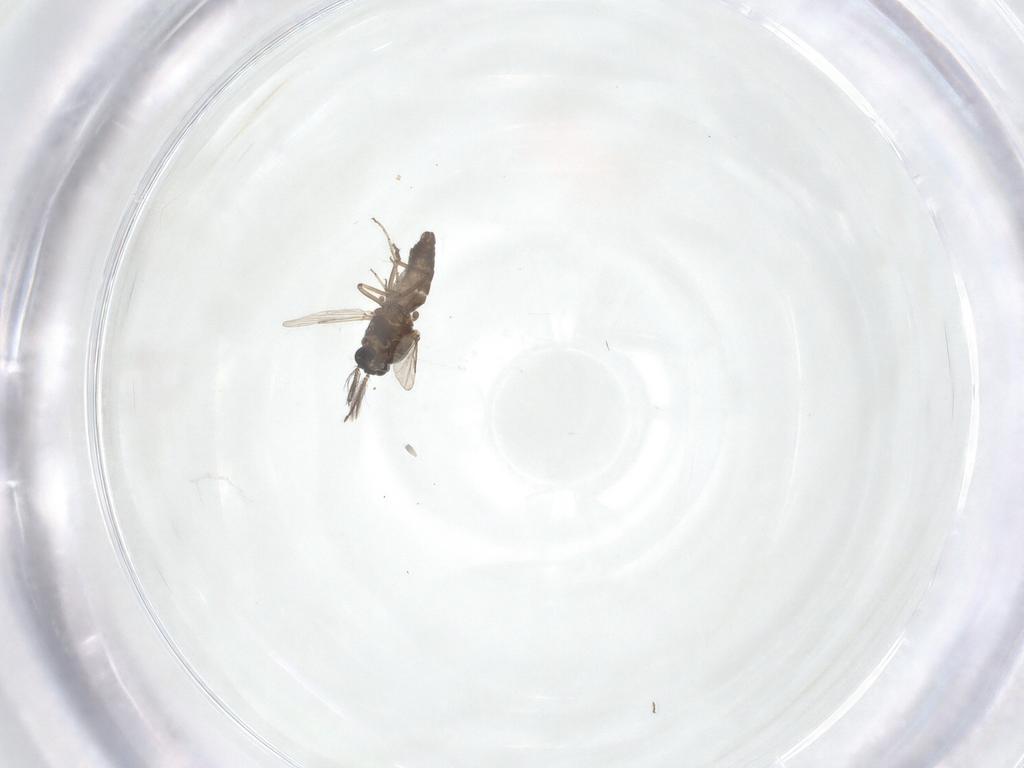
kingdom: Animalia
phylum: Arthropoda
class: Insecta
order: Diptera
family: Ceratopogonidae
